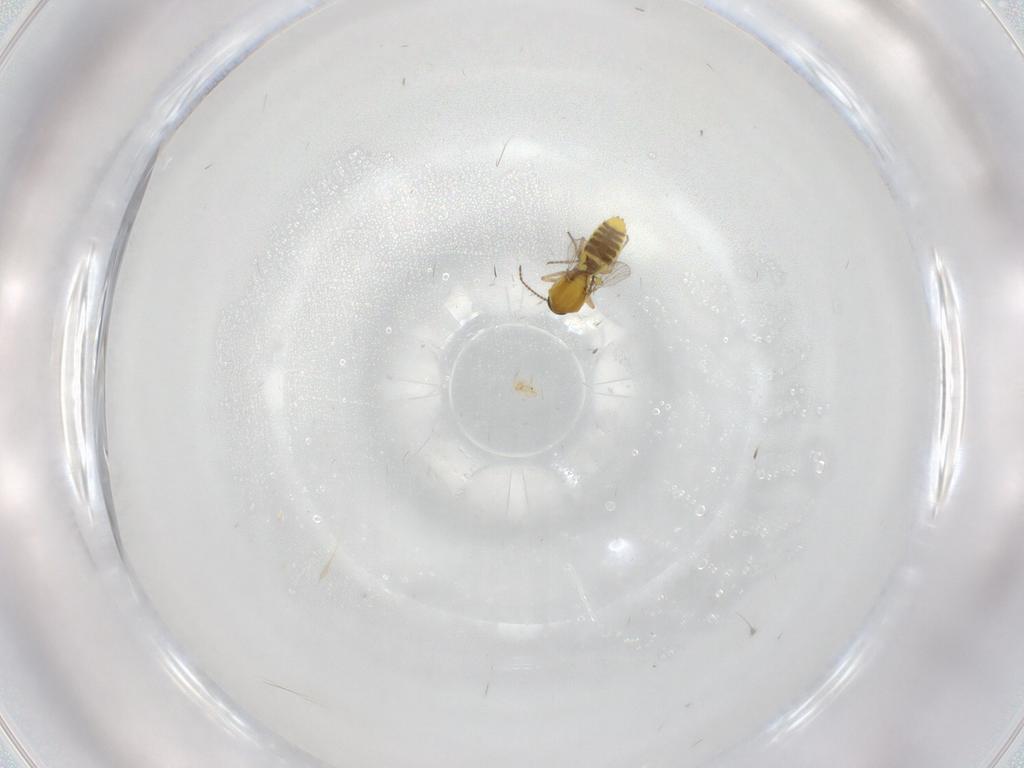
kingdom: Animalia
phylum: Arthropoda
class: Insecta
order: Diptera
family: Ceratopogonidae
